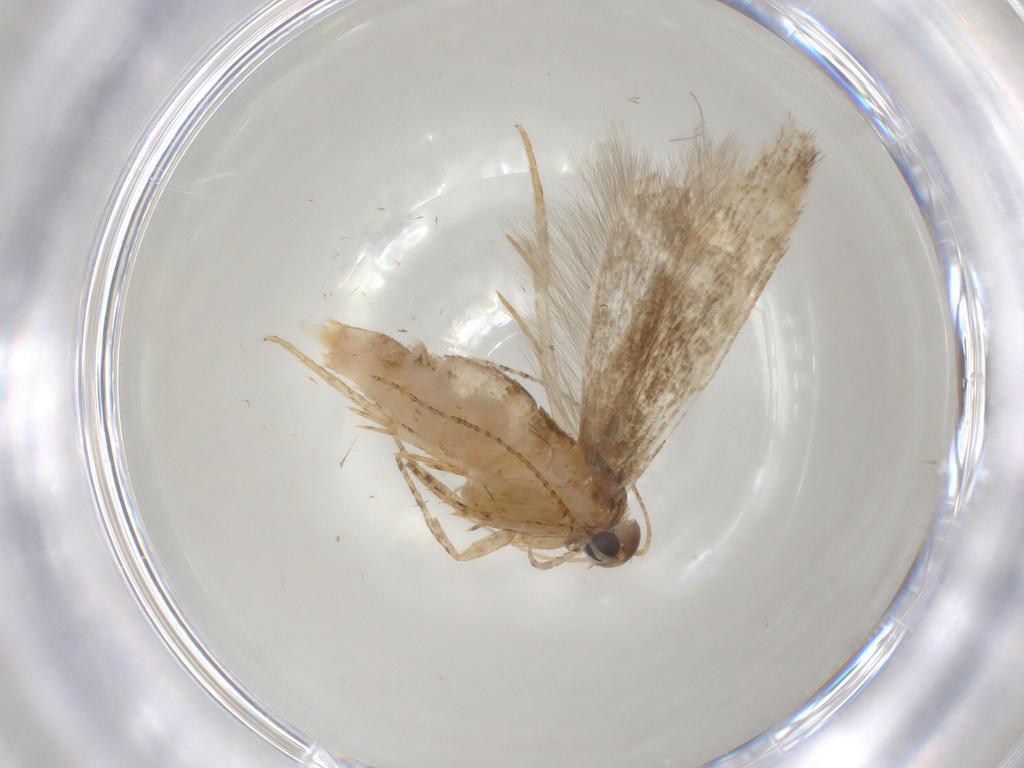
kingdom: Animalia
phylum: Arthropoda
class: Insecta
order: Lepidoptera
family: Gelechiidae
